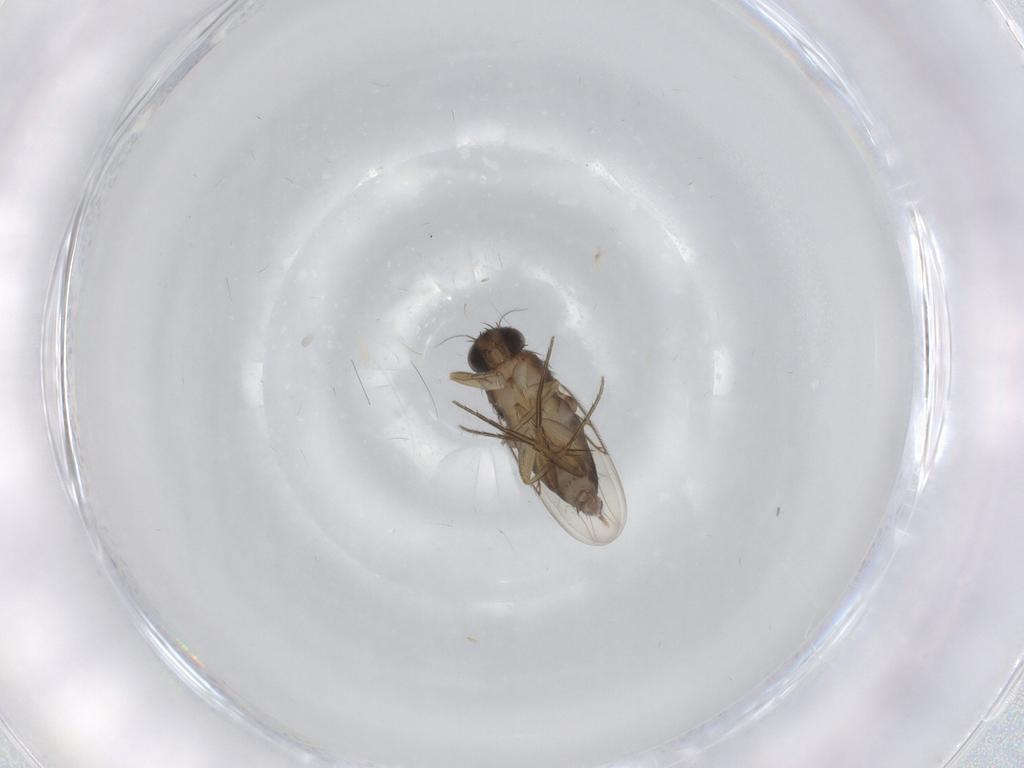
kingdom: Animalia
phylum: Arthropoda
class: Insecta
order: Diptera
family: Phoridae
